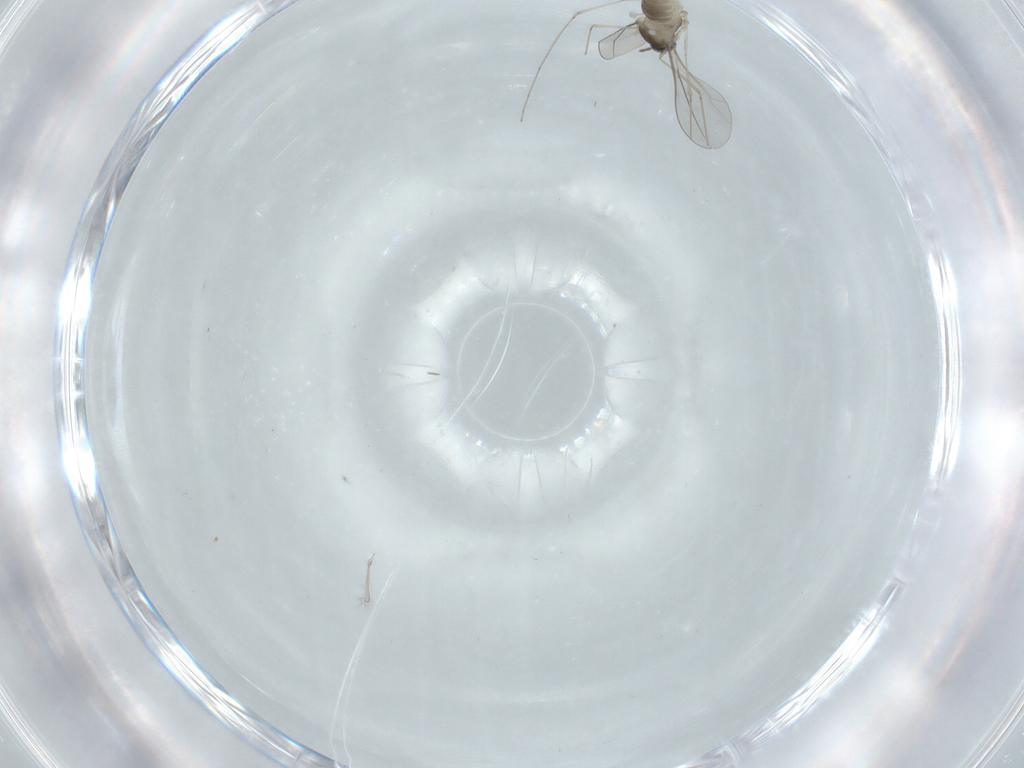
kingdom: Animalia
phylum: Arthropoda
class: Insecta
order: Diptera
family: Cecidomyiidae
